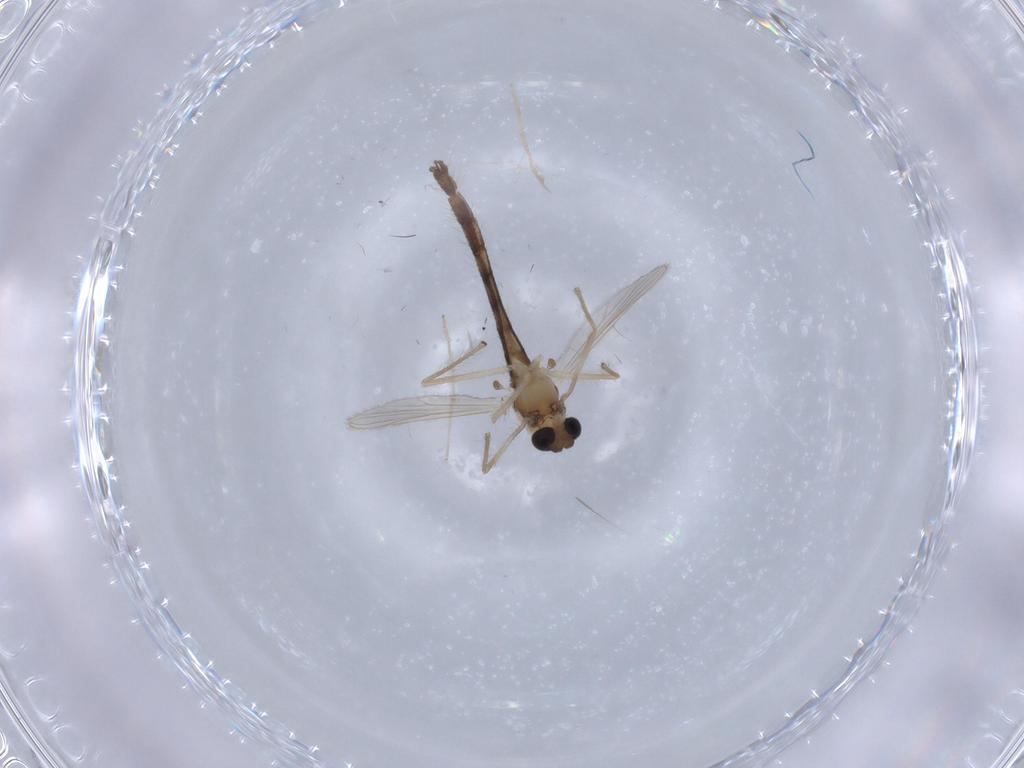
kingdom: Animalia
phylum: Arthropoda
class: Insecta
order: Diptera
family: Chironomidae
